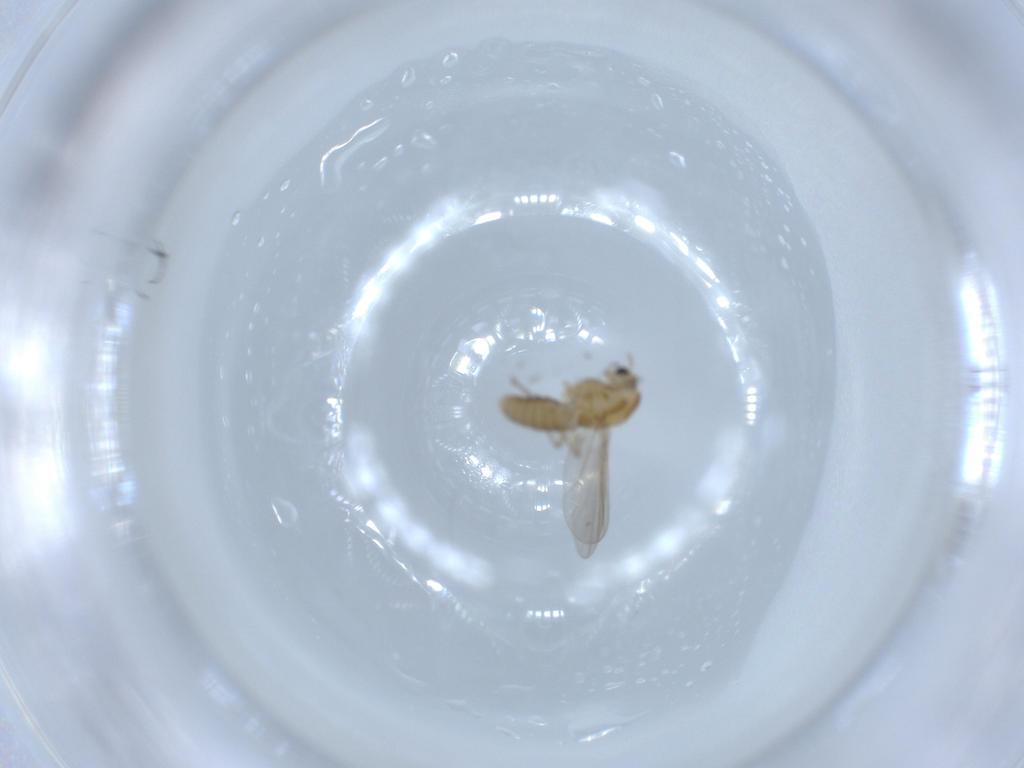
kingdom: Animalia
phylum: Arthropoda
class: Insecta
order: Diptera
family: Chironomidae
